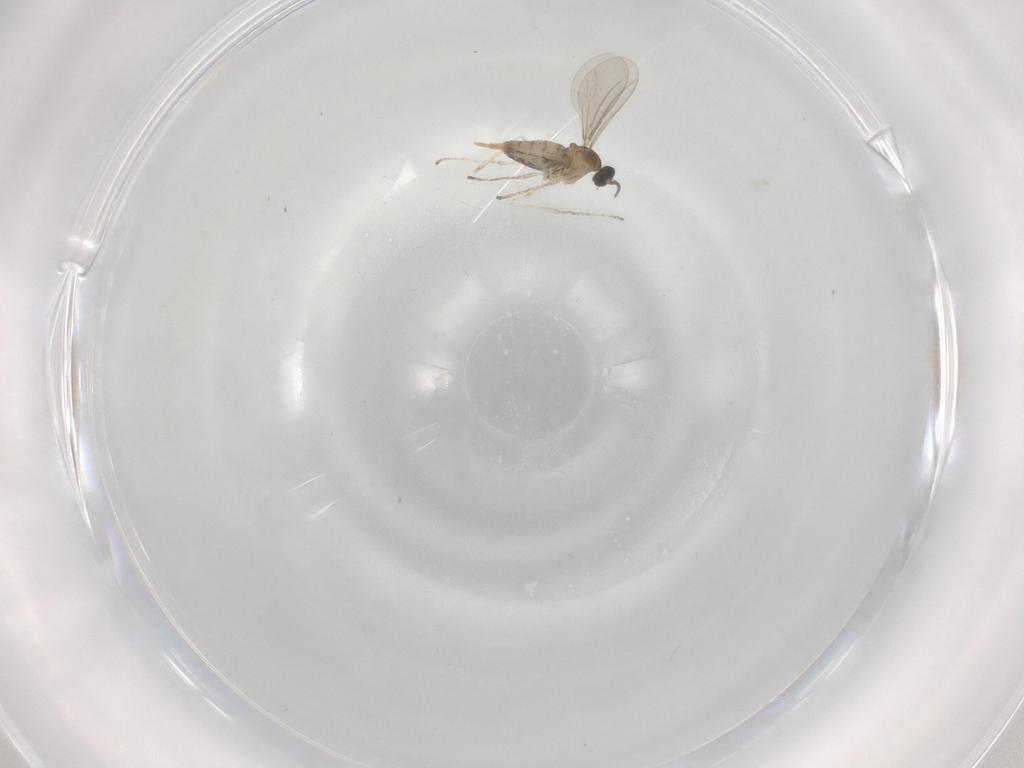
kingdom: Animalia
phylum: Arthropoda
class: Insecta
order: Diptera
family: Cecidomyiidae
